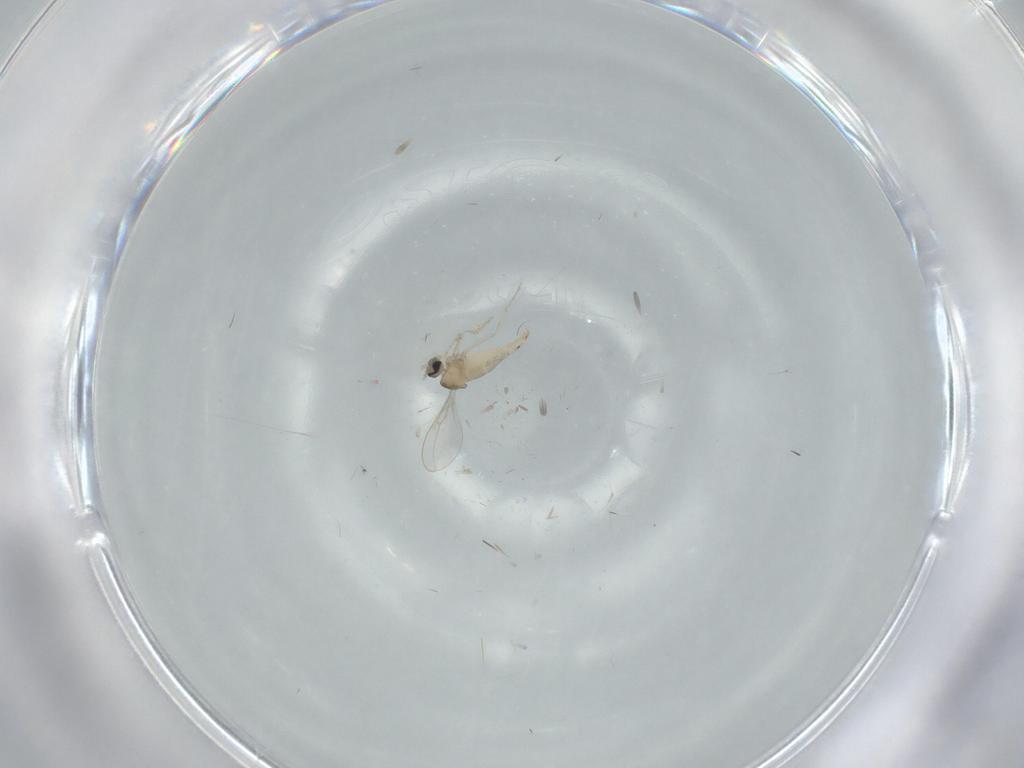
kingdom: Animalia
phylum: Arthropoda
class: Insecta
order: Diptera
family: Cecidomyiidae
